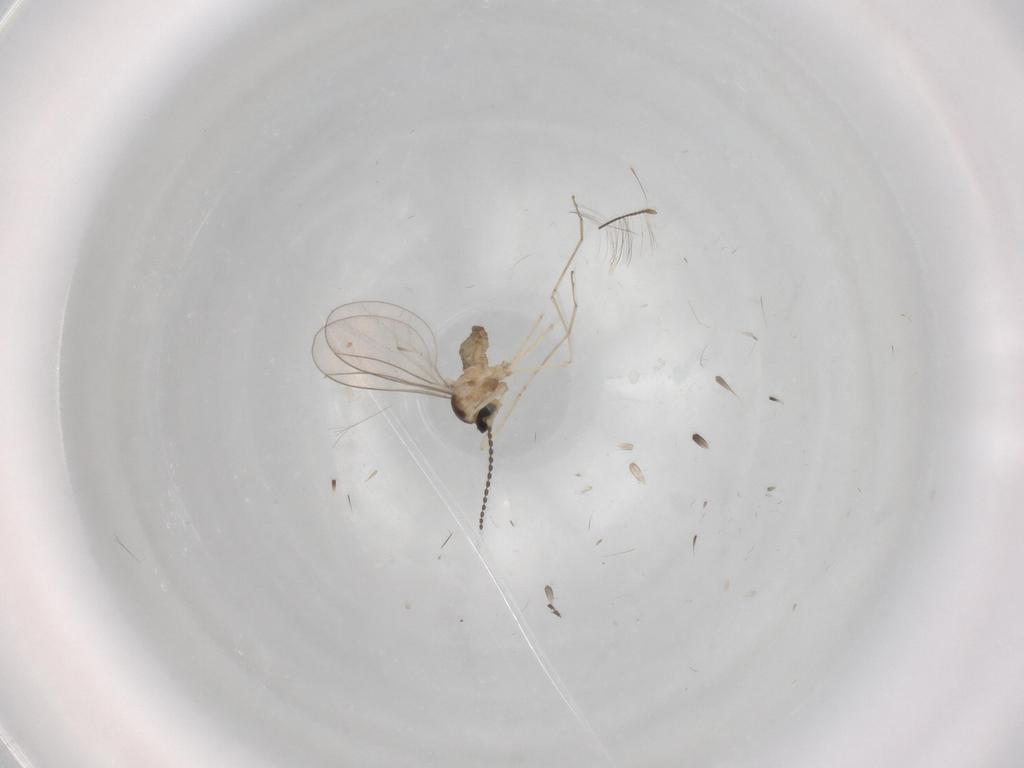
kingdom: Animalia
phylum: Arthropoda
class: Insecta
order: Diptera
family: Cecidomyiidae
